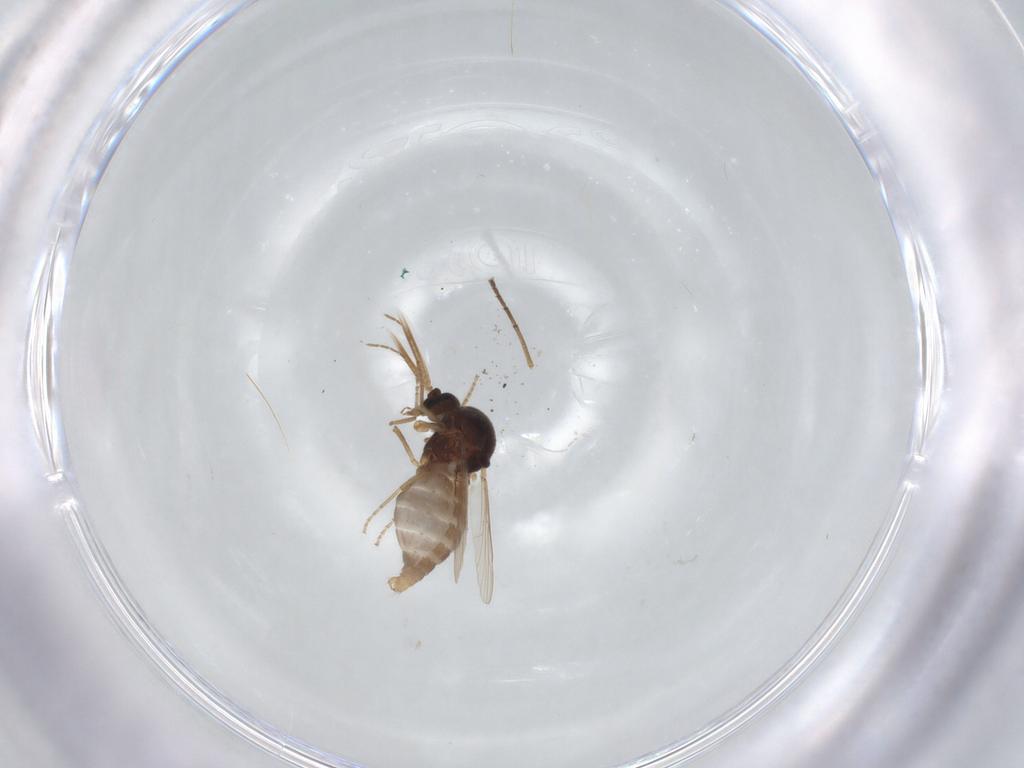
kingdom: Animalia
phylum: Arthropoda
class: Insecta
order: Diptera
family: Ceratopogonidae
